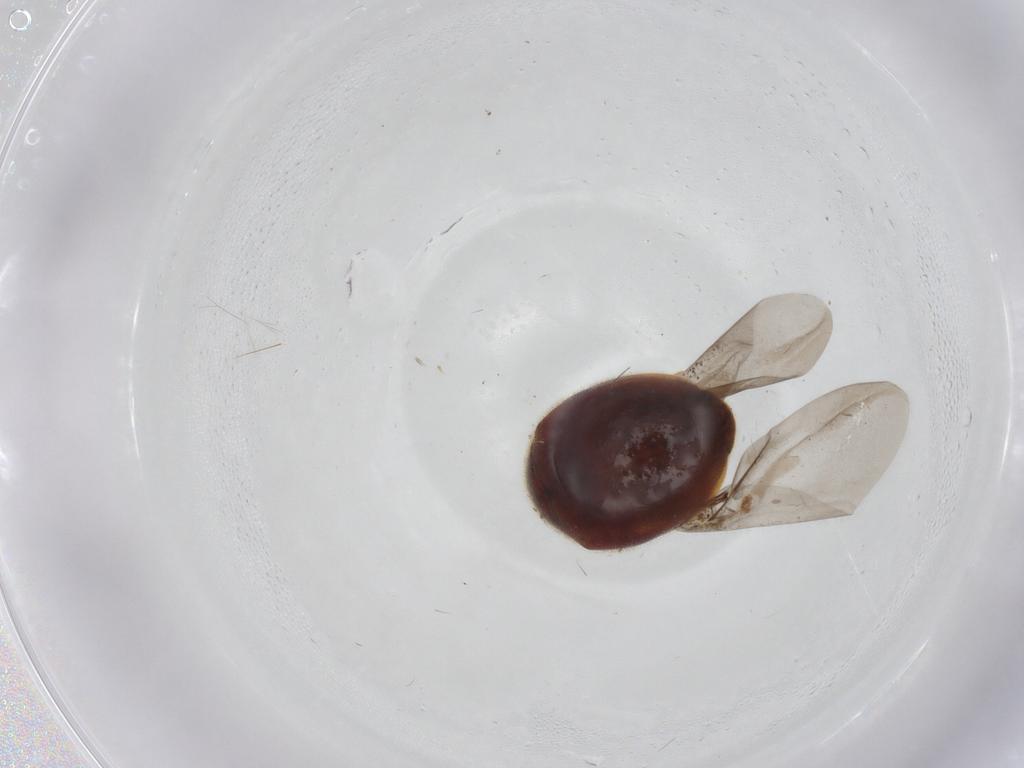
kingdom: Animalia
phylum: Arthropoda
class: Insecta
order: Coleoptera
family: Coccinellidae
